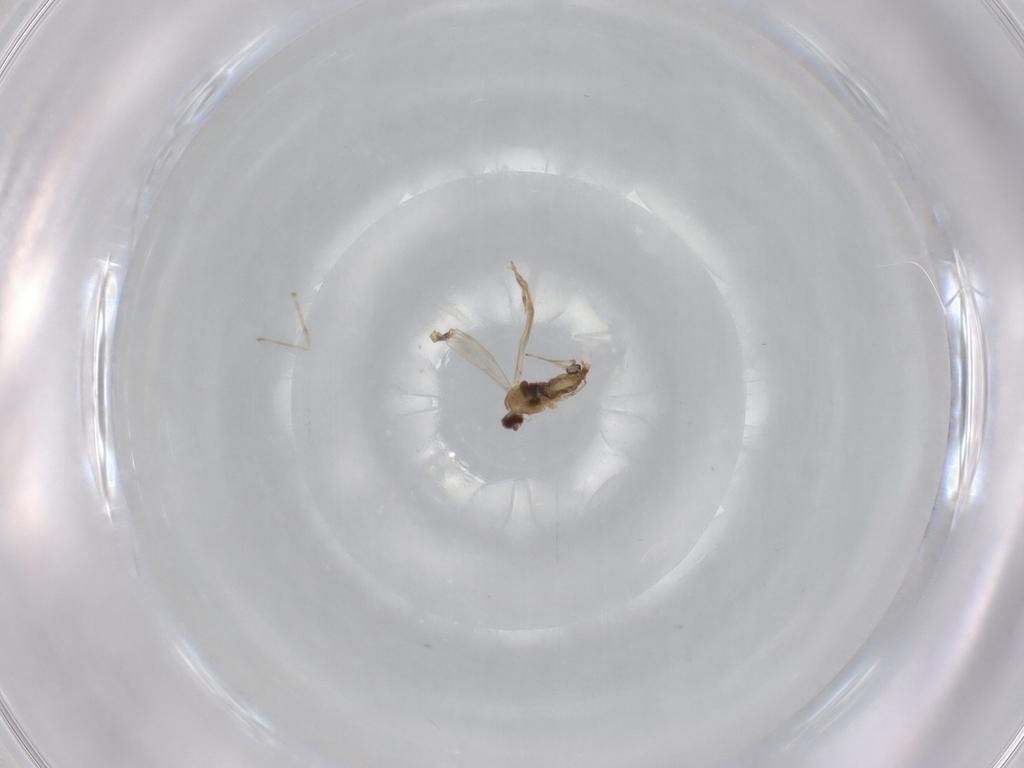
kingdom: Animalia
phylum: Arthropoda
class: Insecta
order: Diptera
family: Cecidomyiidae
